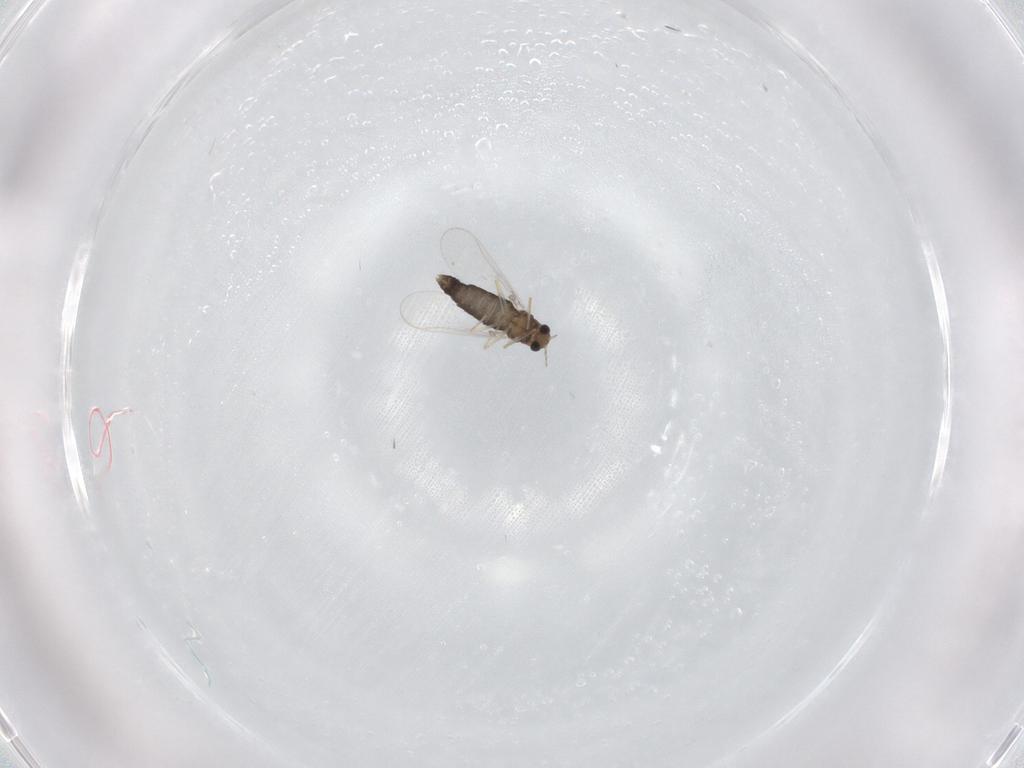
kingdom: Animalia
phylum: Arthropoda
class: Insecta
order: Diptera
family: Chironomidae
